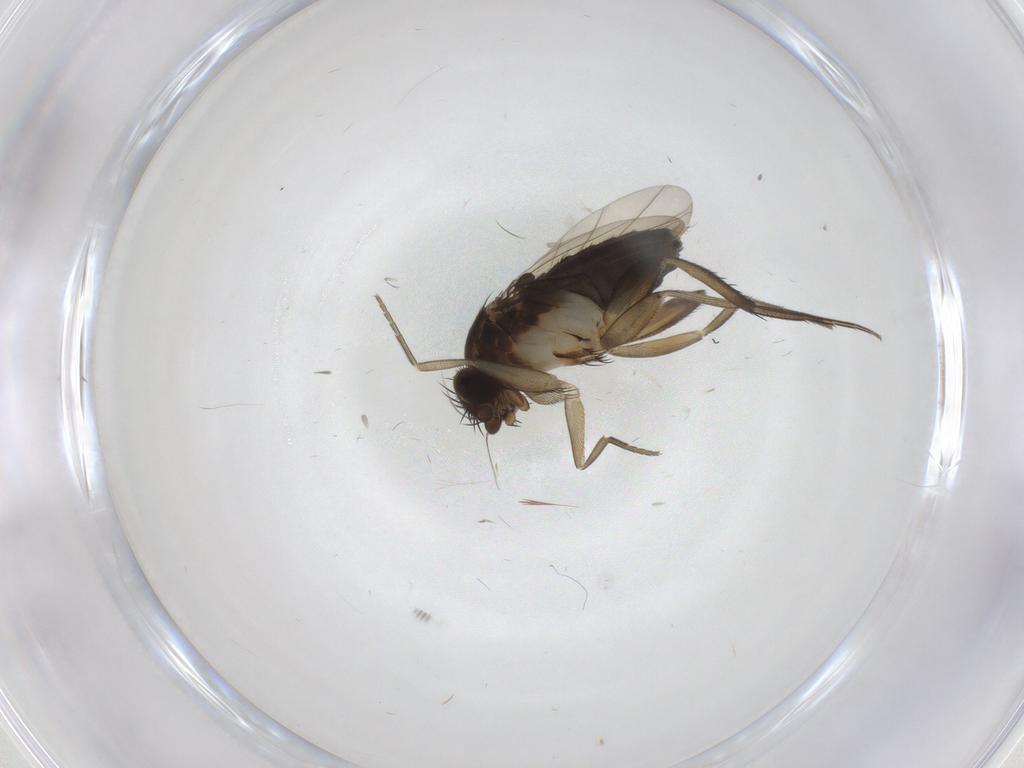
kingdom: Animalia
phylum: Arthropoda
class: Insecta
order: Diptera
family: Phoridae
